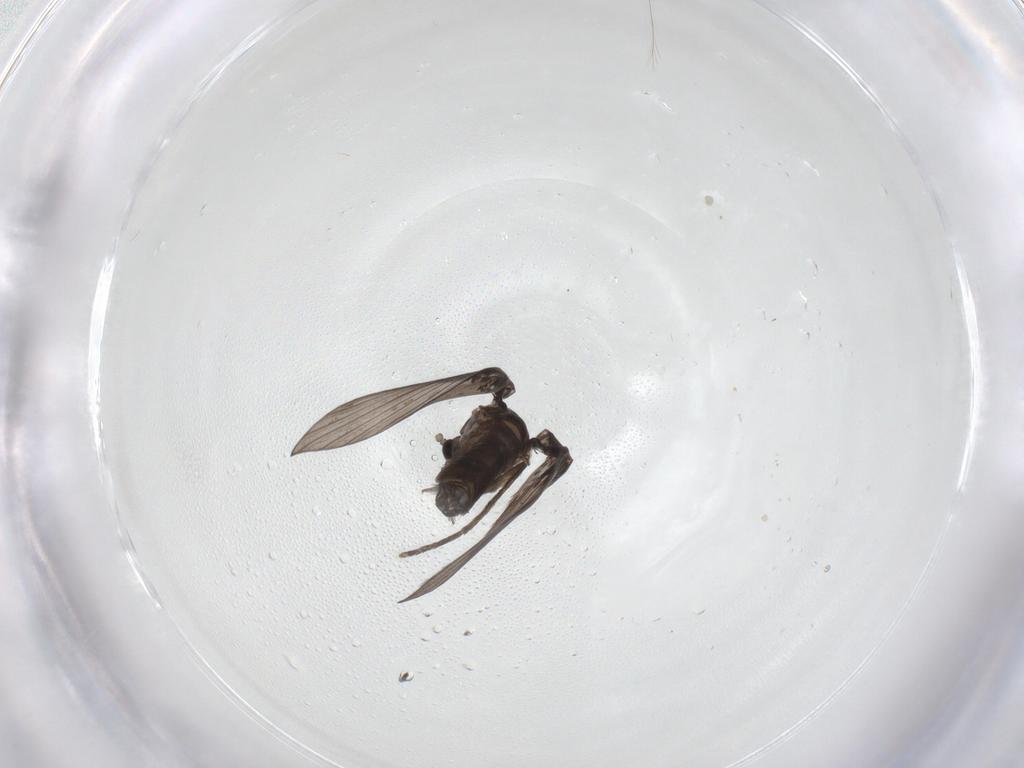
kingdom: Animalia
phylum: Arthropoda
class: Insecta
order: Diptera
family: Psychodidae
